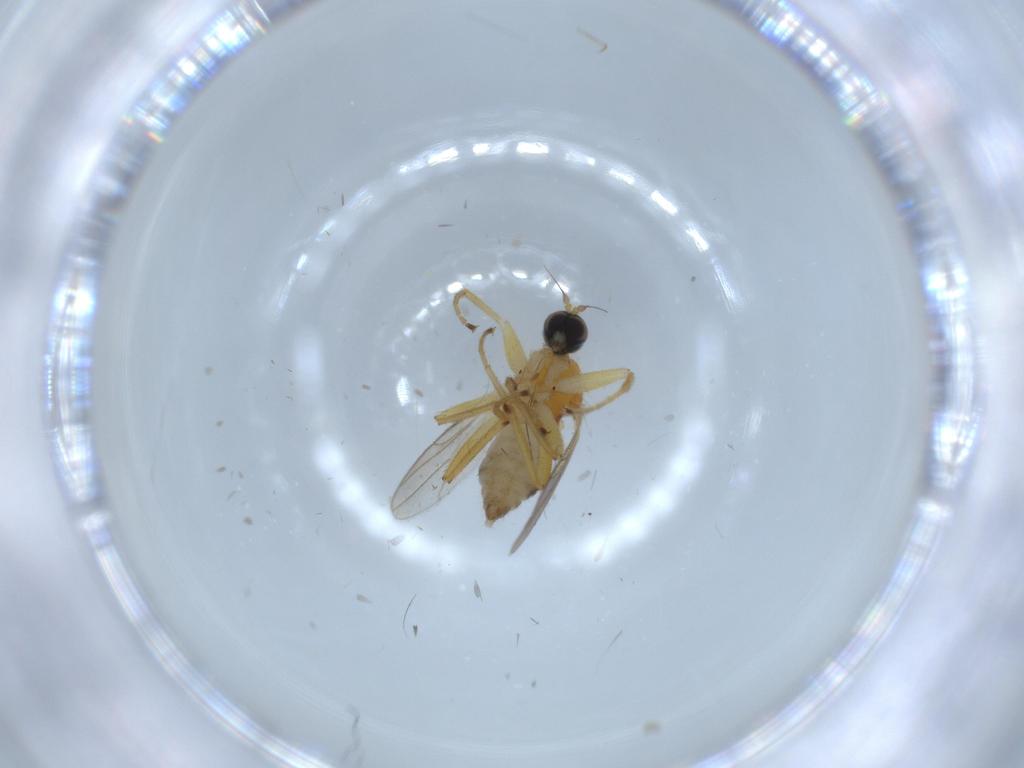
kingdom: Animalia
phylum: Arthropoda
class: Insecta
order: Diptera
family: Hybotidae
